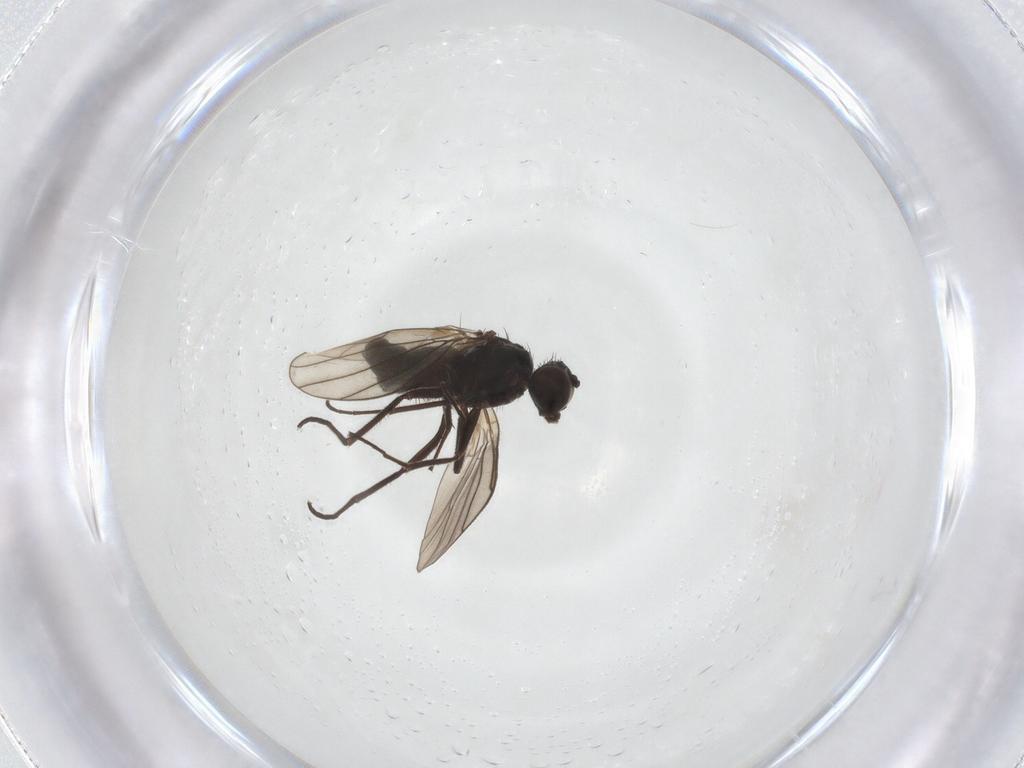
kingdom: Animalia
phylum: Arthropoda
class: Insecta
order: Diptera
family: Dolichopodidae
